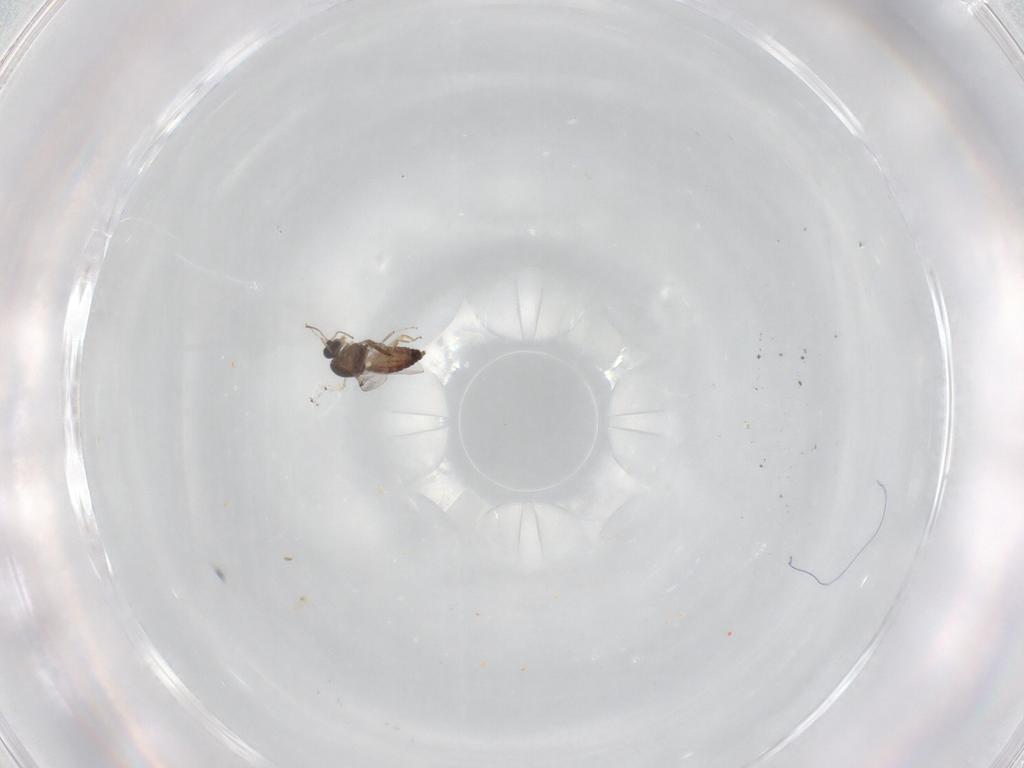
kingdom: Animalia
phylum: Arthropoda
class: Insecta
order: Diptera
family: Ceratopogonidae
